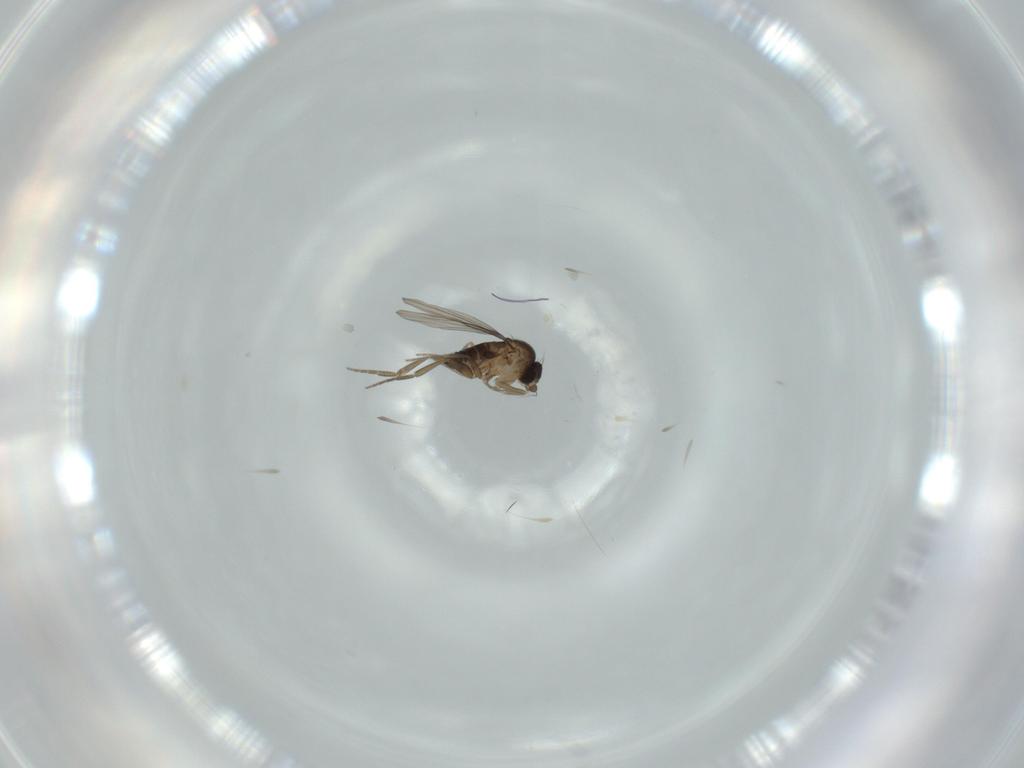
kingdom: Animalia
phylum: Arthropoda
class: Insecta
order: Diptera
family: Phoridae
